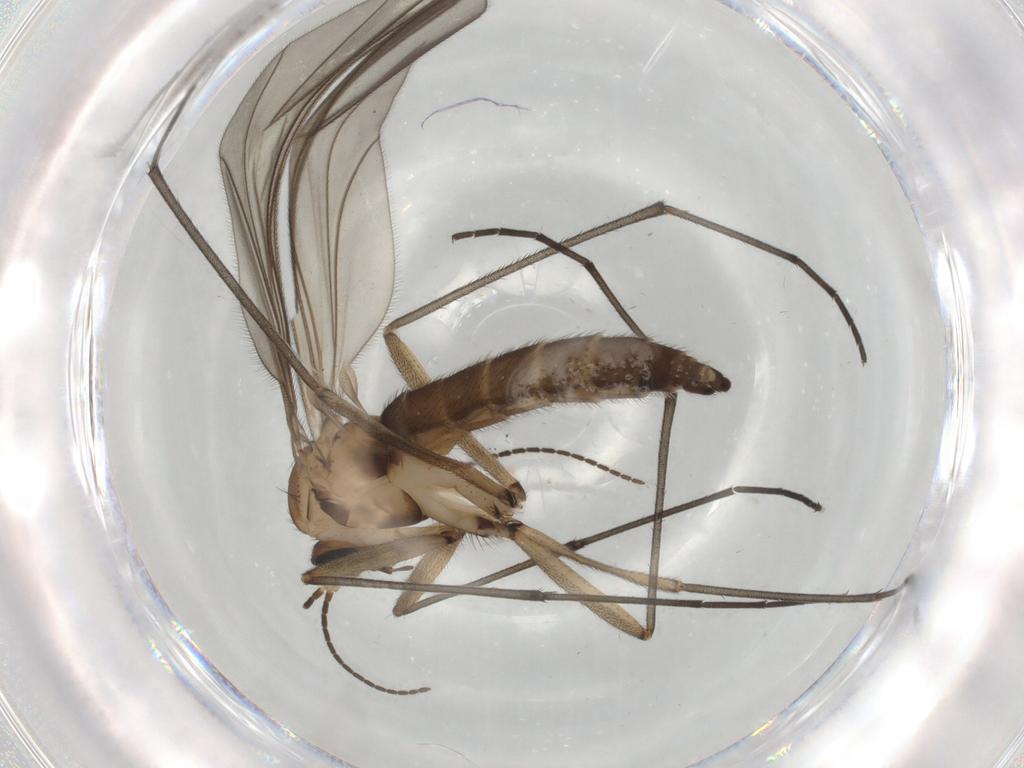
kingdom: Animalia
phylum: Arthropoda
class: Insecta
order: Diptera
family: Sciaridae
